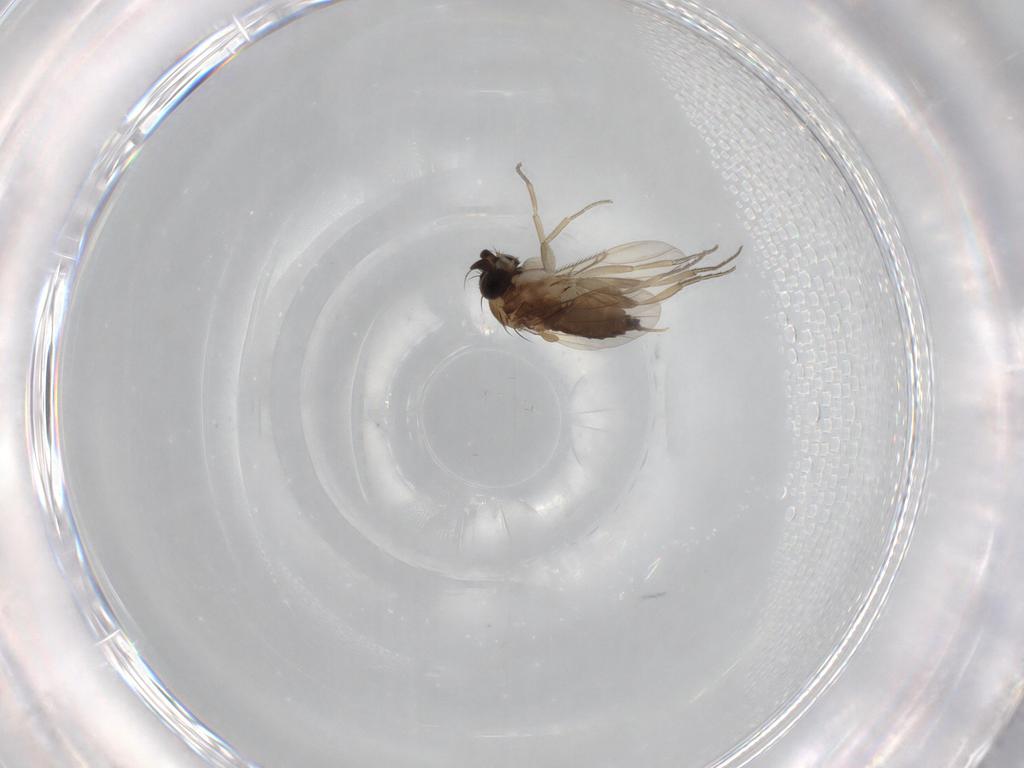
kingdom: Animalia
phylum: Arthropoda
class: Insecta
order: Diptera
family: Phoridae
